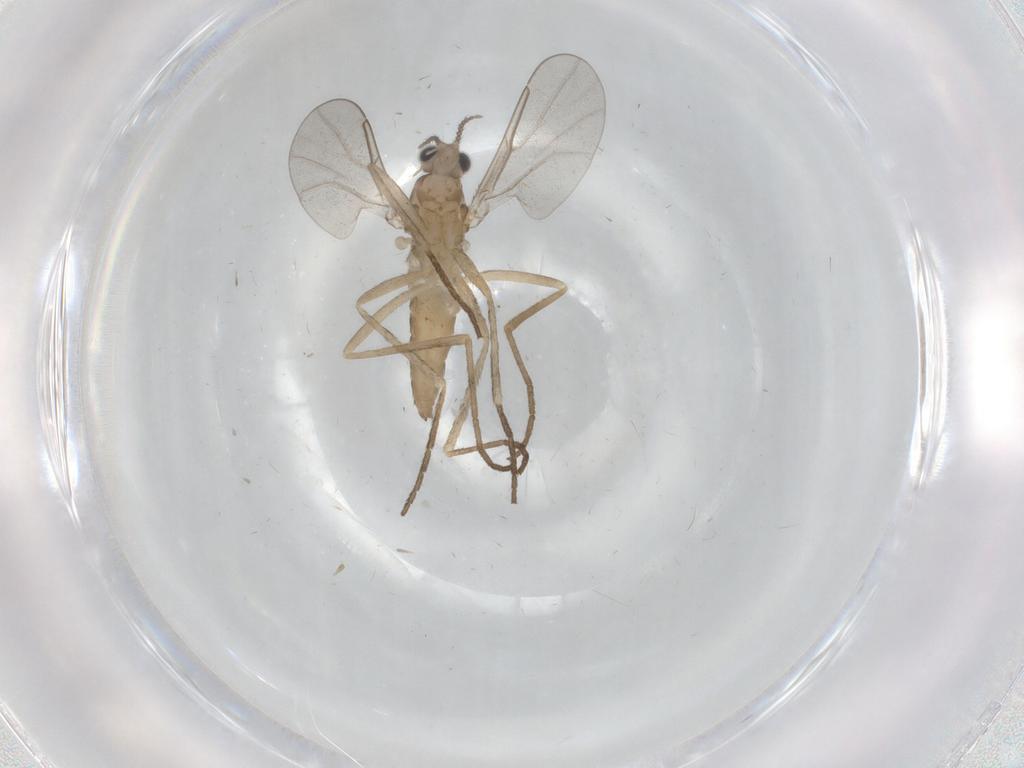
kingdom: Animalia
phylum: Arthropoda
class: Insecta
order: Diptera
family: Cecidomyiidae
